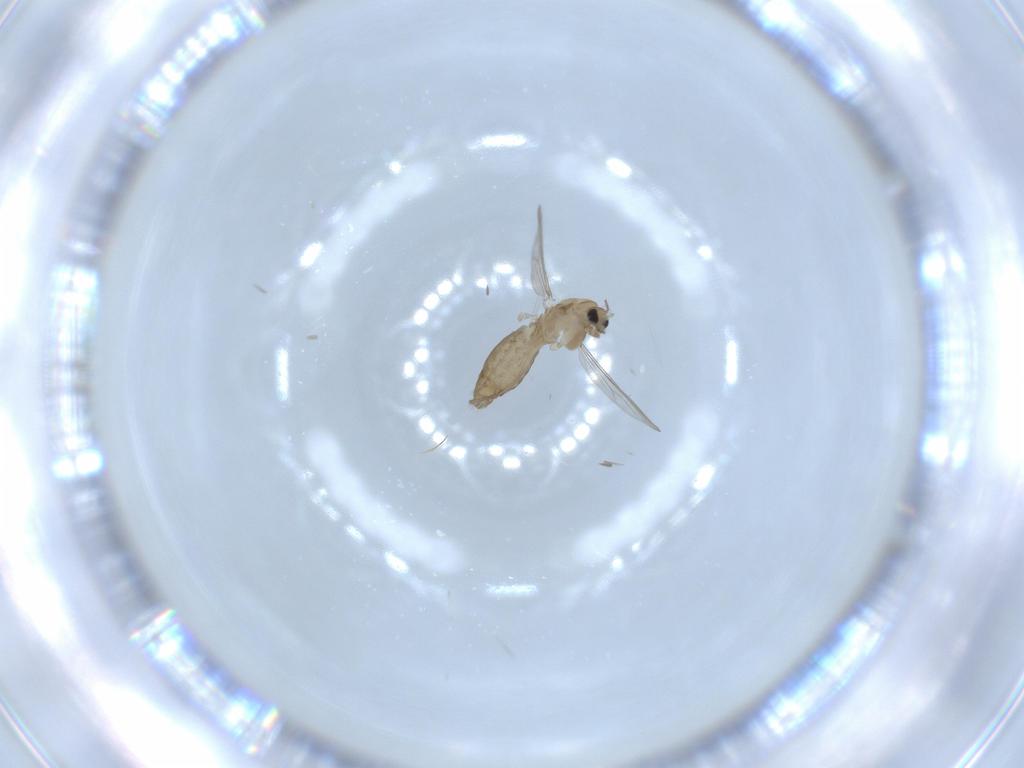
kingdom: Animalia
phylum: Arthropoda
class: Insecta
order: Diptera
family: Chironomidae
